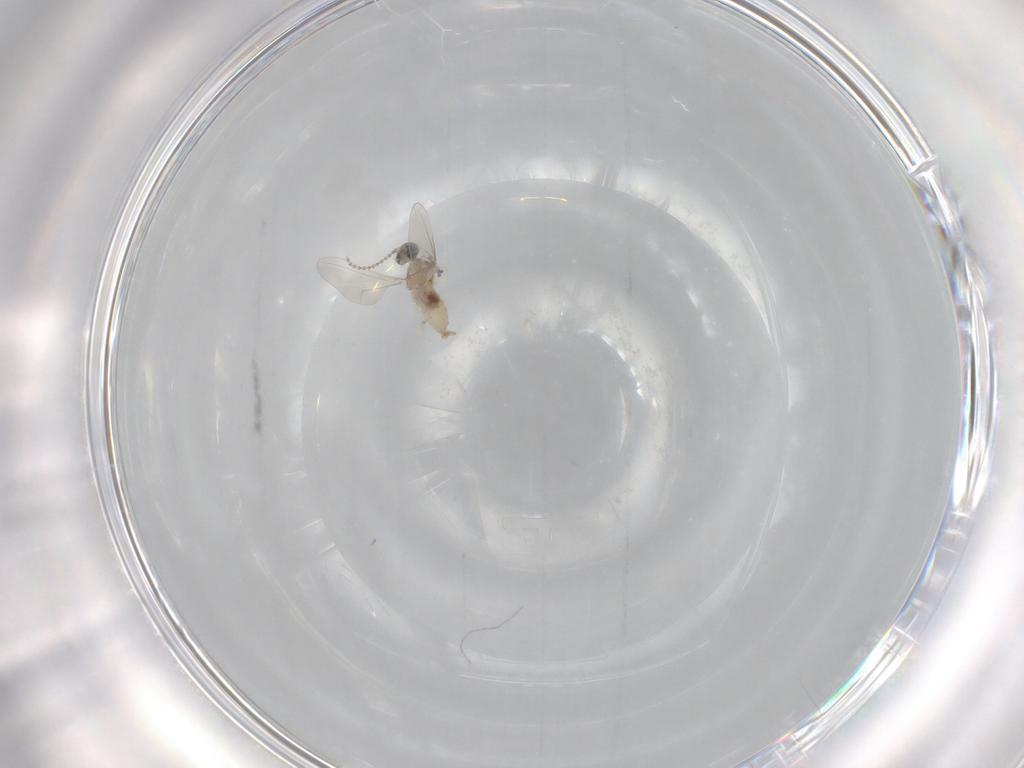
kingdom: Animalia
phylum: Arthropoda
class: Insecta
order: Diptera
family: Cecidomyiidae
